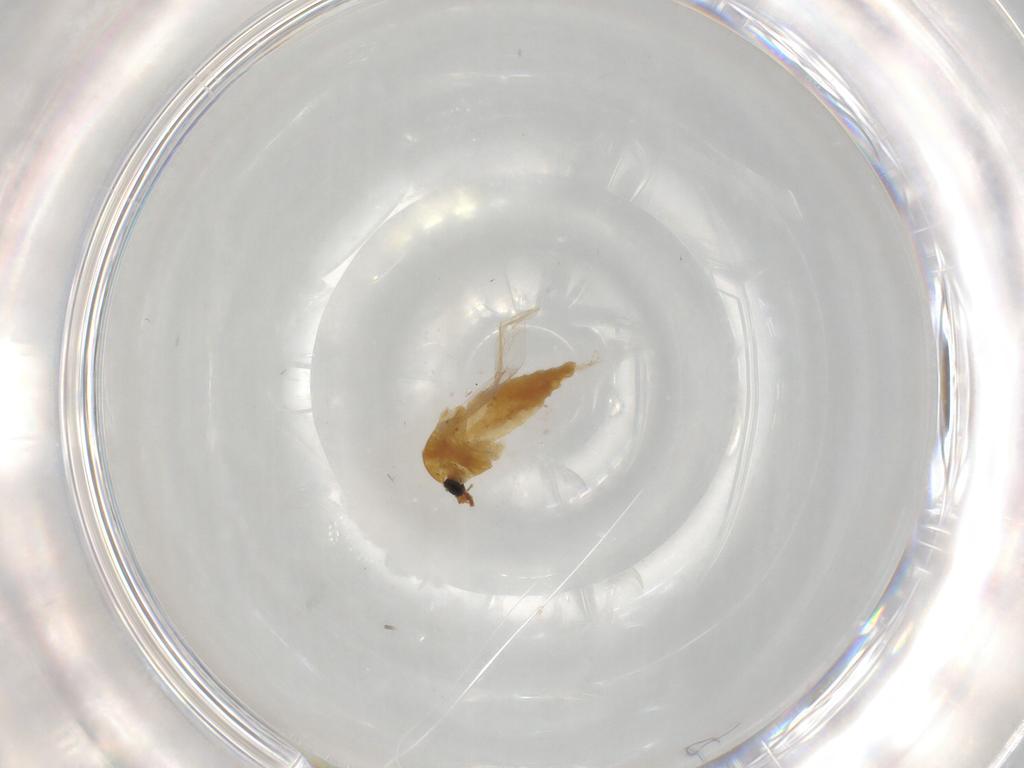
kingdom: Animalia
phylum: Arthropoda
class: Insecta
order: Diptera
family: Chironomidae
